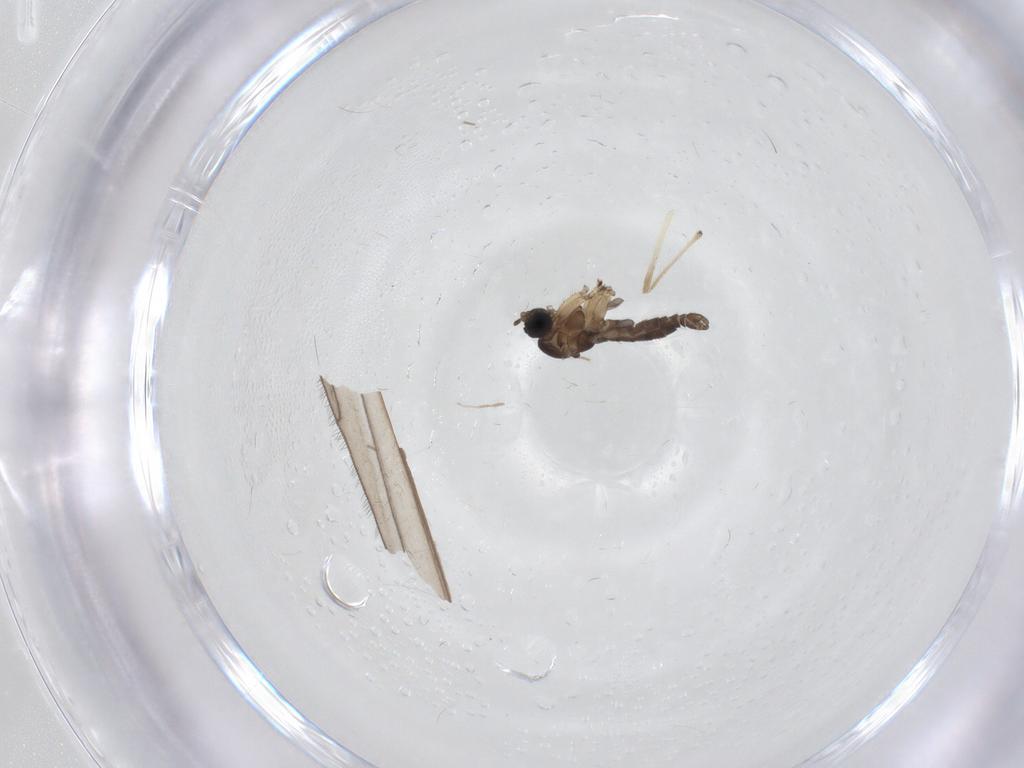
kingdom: Animalia
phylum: Arthropoda
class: Insecta
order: Diptera
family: Sciaridae
